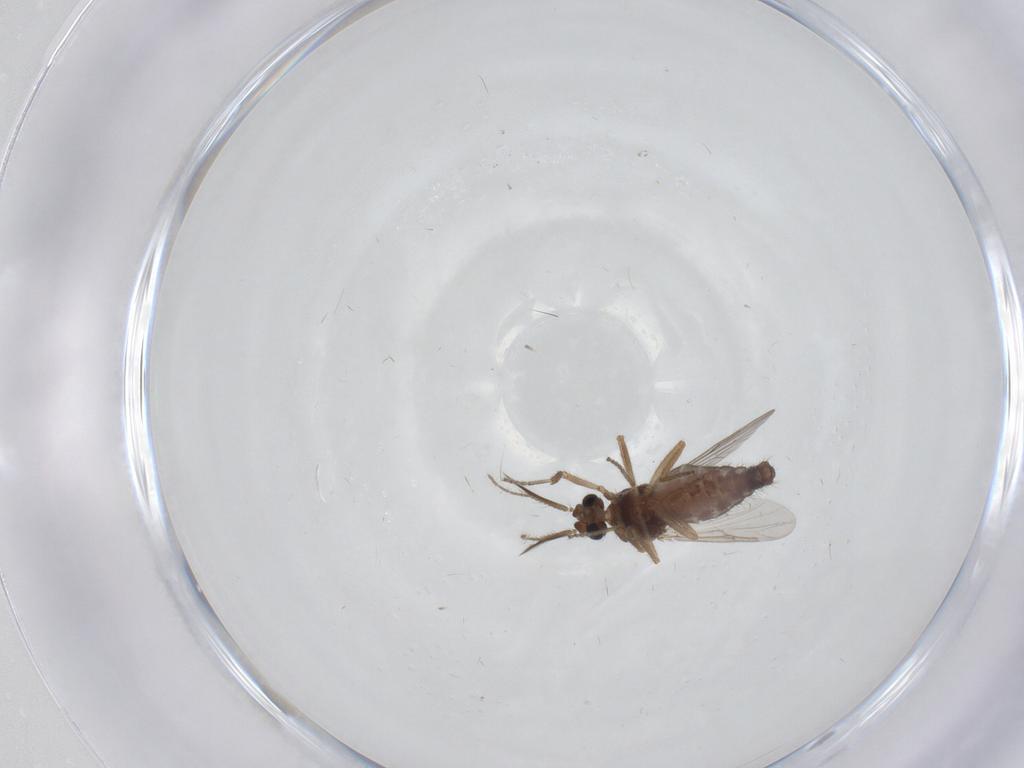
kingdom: Animalia
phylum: Arthropoda
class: Insecta
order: Diptera
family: Ceratopogonidae
